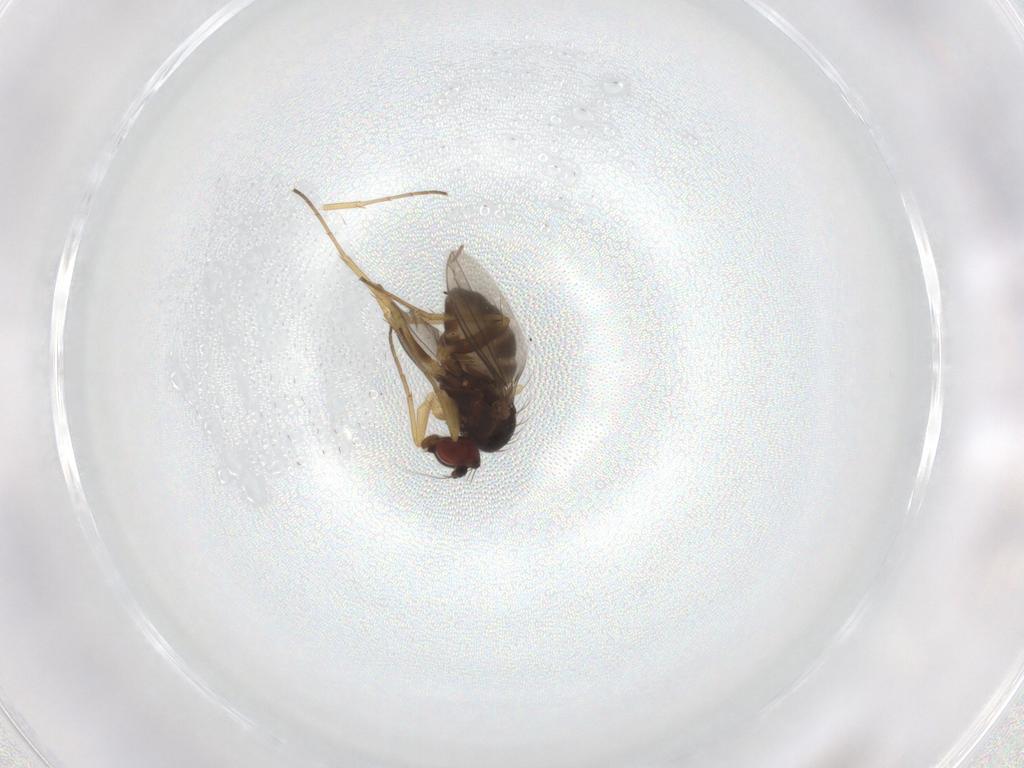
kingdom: Animalia
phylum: Arthropoda
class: Insecta
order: Diptera
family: Dolichopodidae
